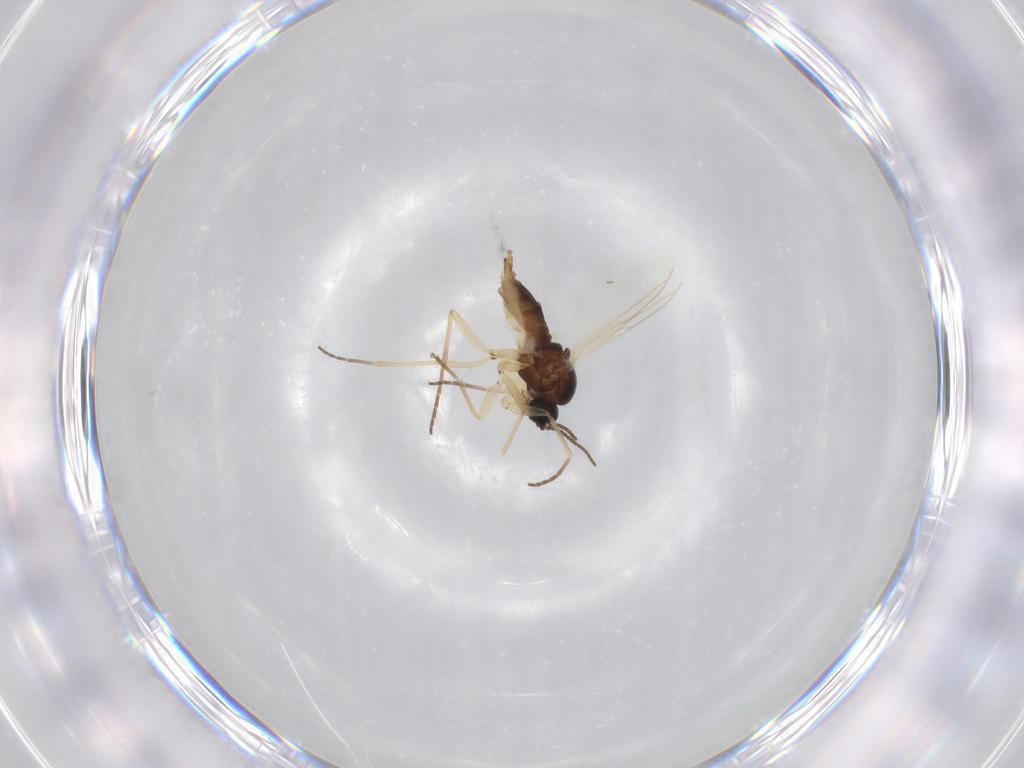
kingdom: Animalia
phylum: Arthropoda
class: Insecta
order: Diptera
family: Sciaridae
